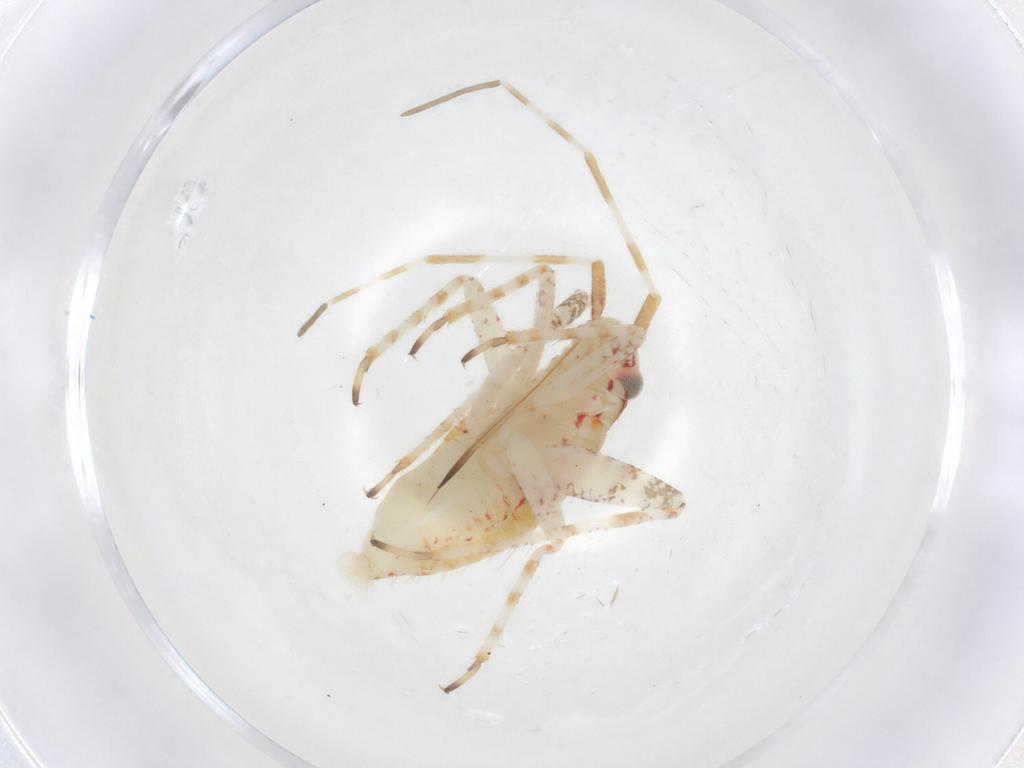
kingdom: Animalia
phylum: Arthropoda
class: Insecta
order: Hemiptera
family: Miridae
